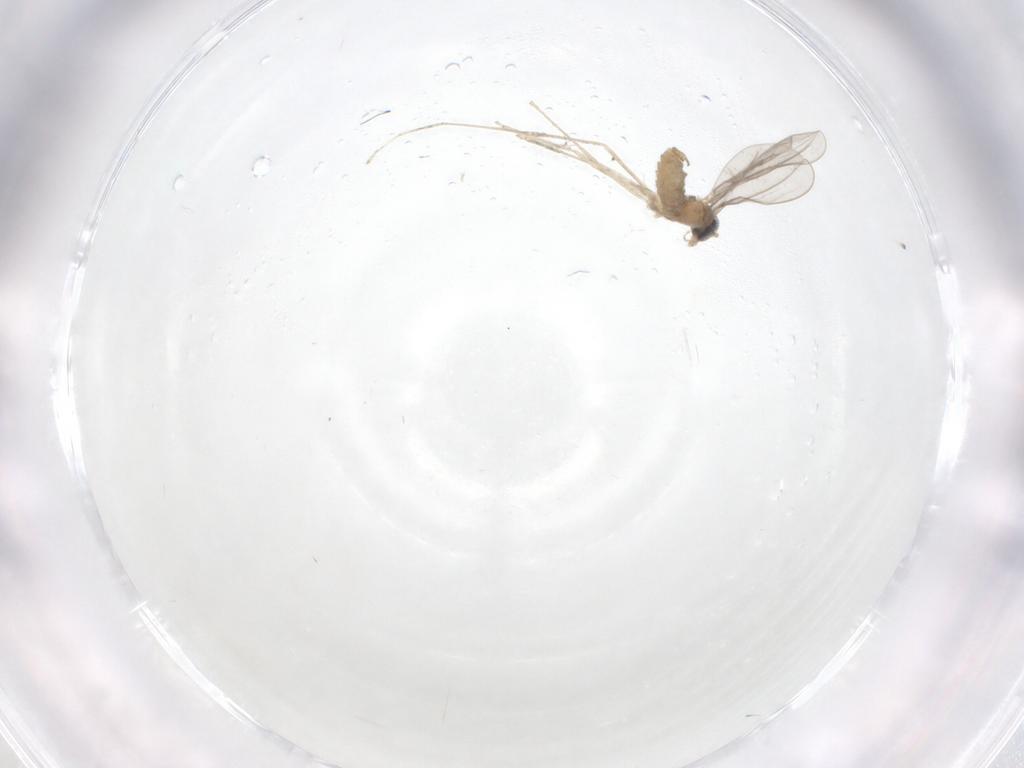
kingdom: Animalia
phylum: Arthropoda
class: Insecta
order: Diptera
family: Cecidomyiidae
